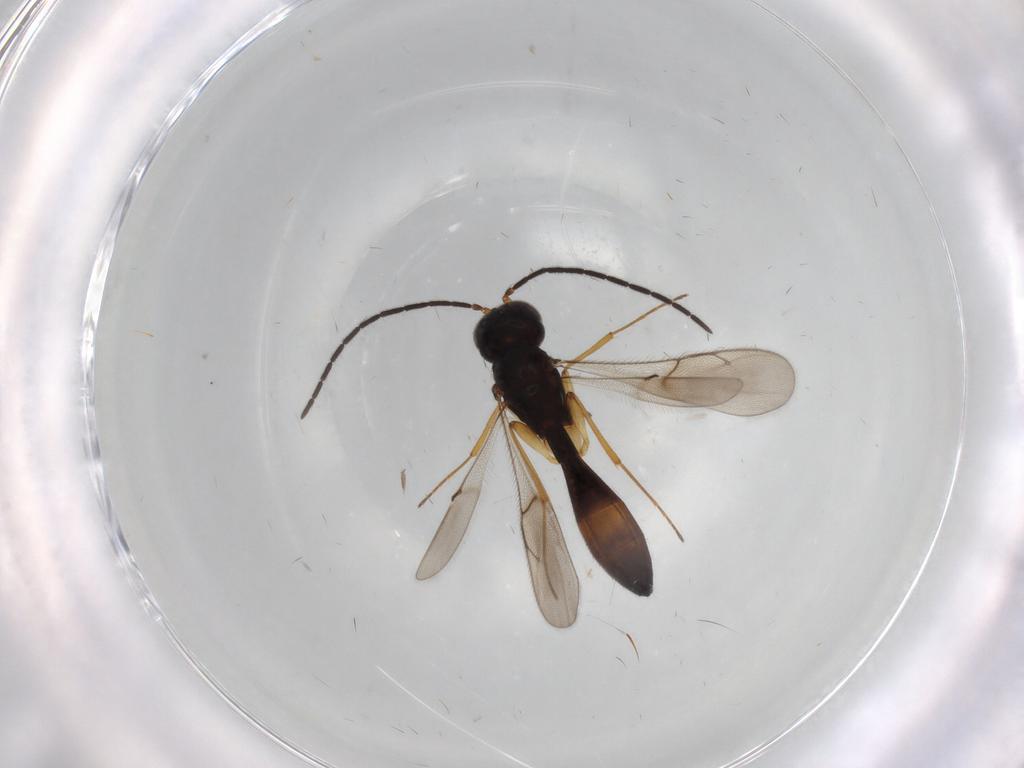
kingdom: Animalia
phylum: Arthropoda
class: Insecta
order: Hymenoptera
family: Scelionidae
